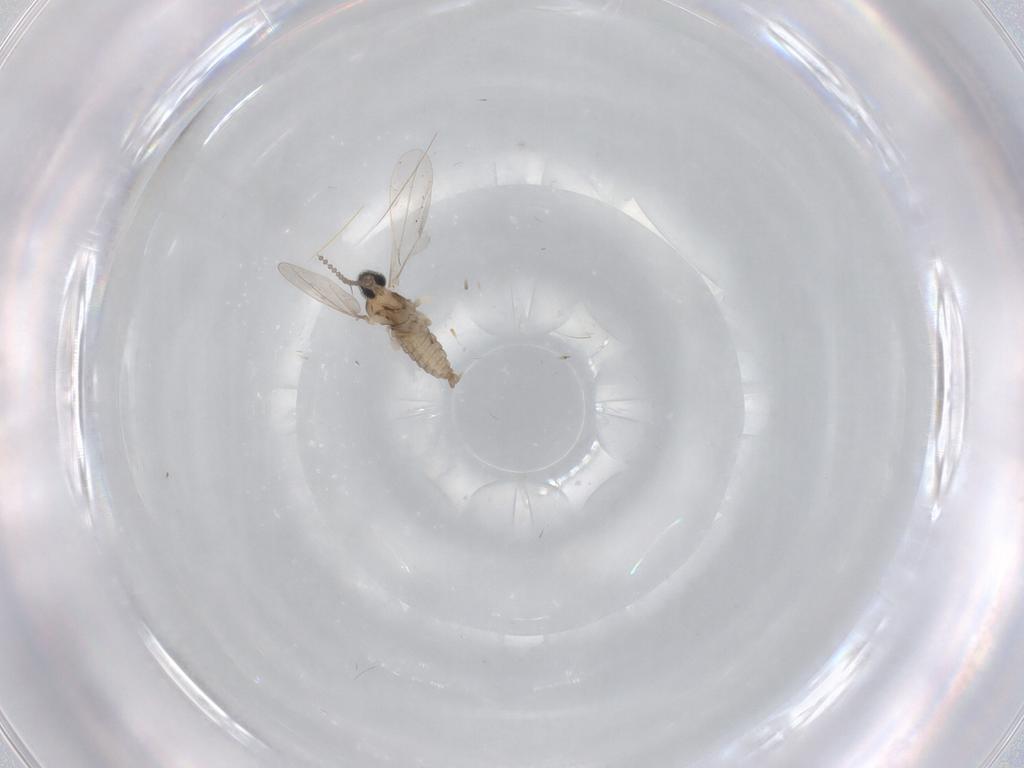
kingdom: Animalia
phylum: Arthropoda
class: Insecta
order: Diptera
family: Cecidomyiidae
